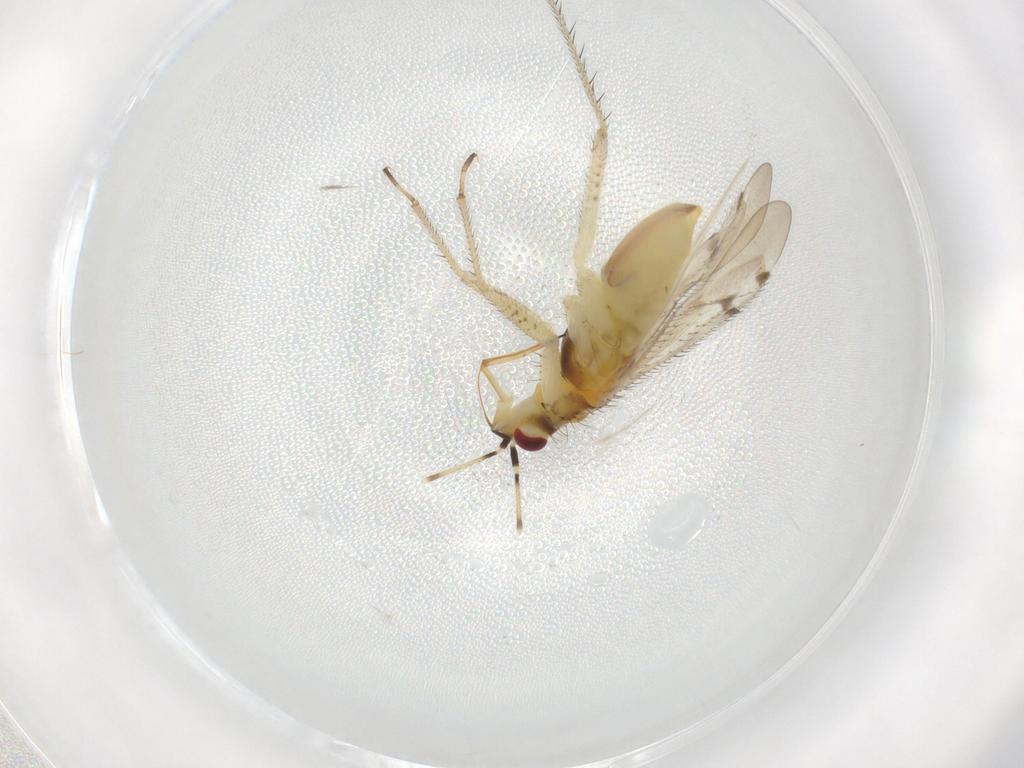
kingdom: Animalia
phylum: Arthropoda
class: Insecta
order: Hemiptera
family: Miridae
